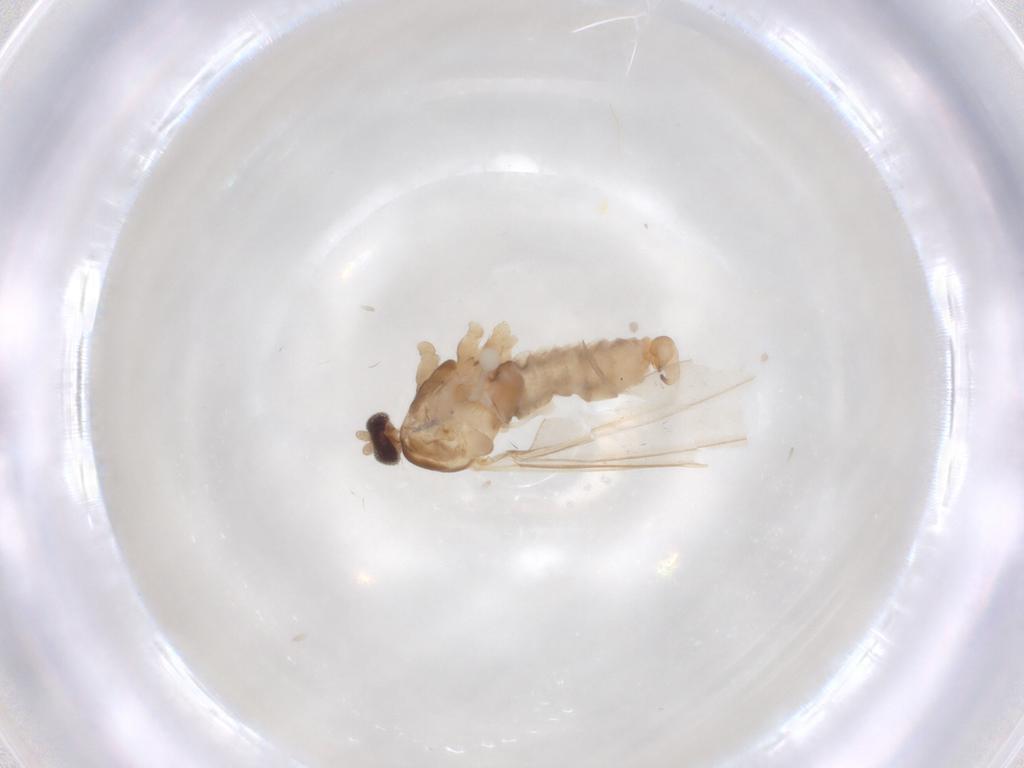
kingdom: Animalia
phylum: Arthropoda
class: Insecta
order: Diptera
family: Cecidomyiidae
